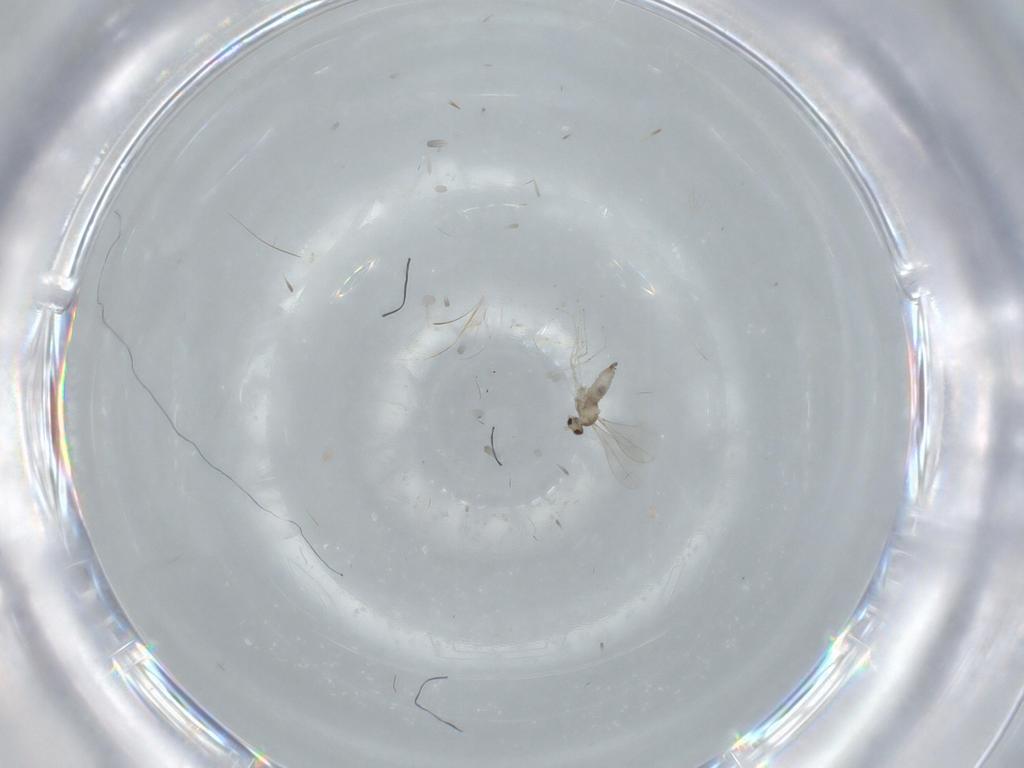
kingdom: Animalia
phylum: Arthropoda
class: Insecta
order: Diptera
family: Cecidomyiidae
